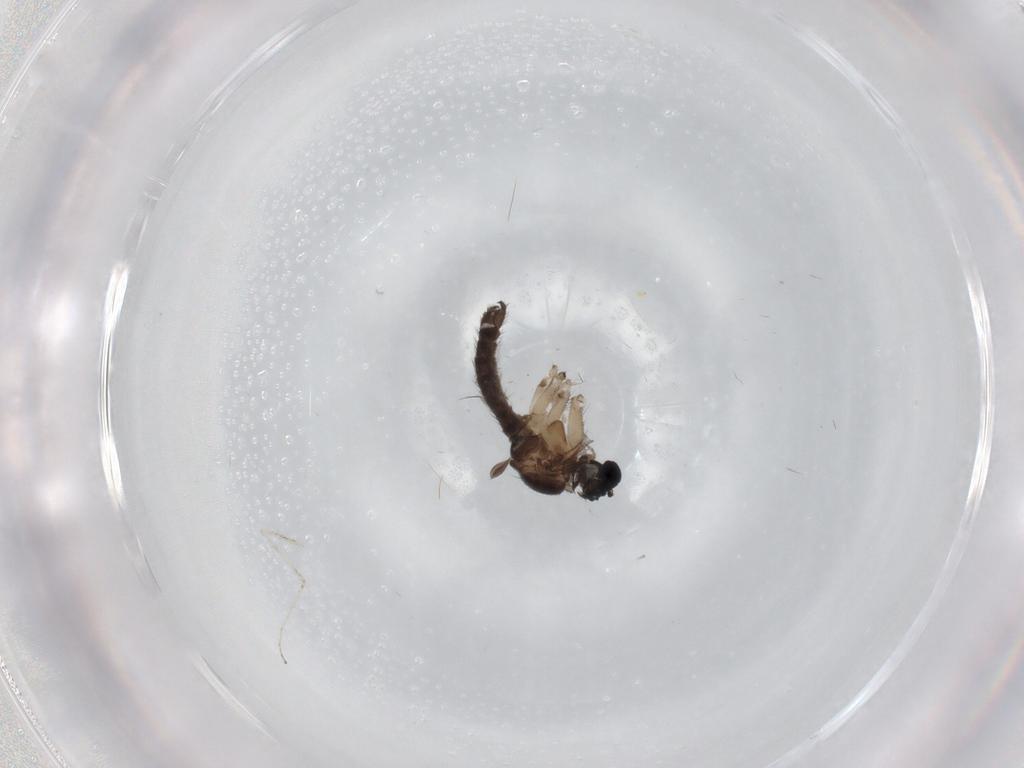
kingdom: Animalia
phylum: Arthropoda
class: Insecta
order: Diptera
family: Sciaridae
